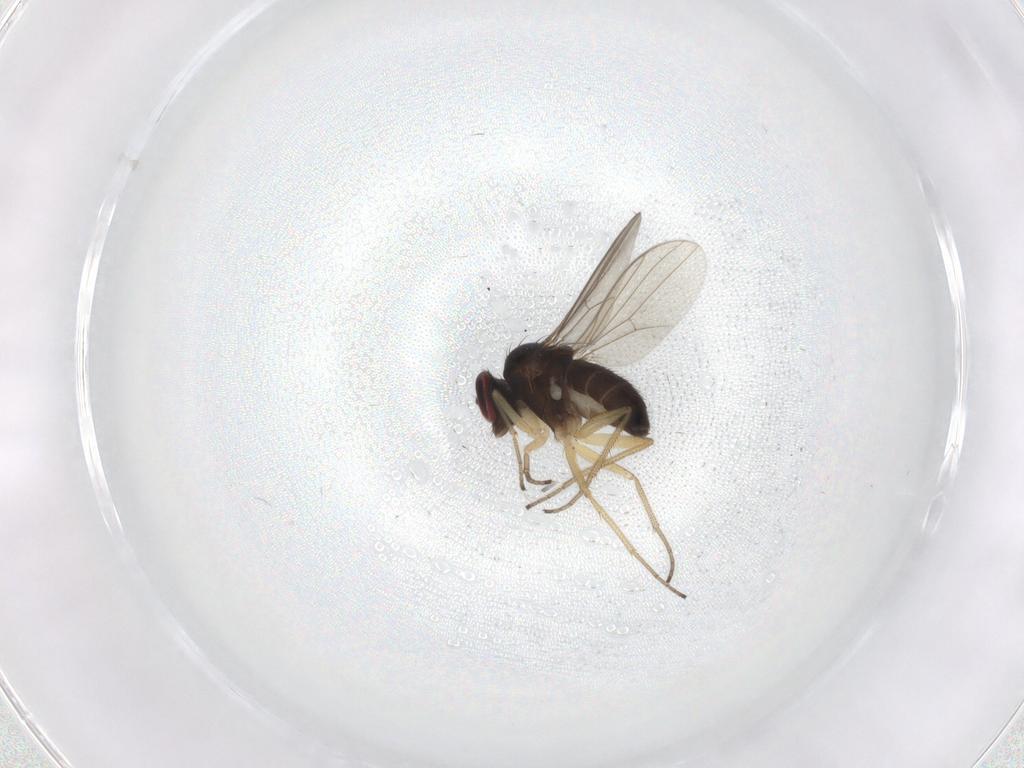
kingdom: Animalia
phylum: Arthropoda
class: Insecta
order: Diptera
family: Dolichopodidae
